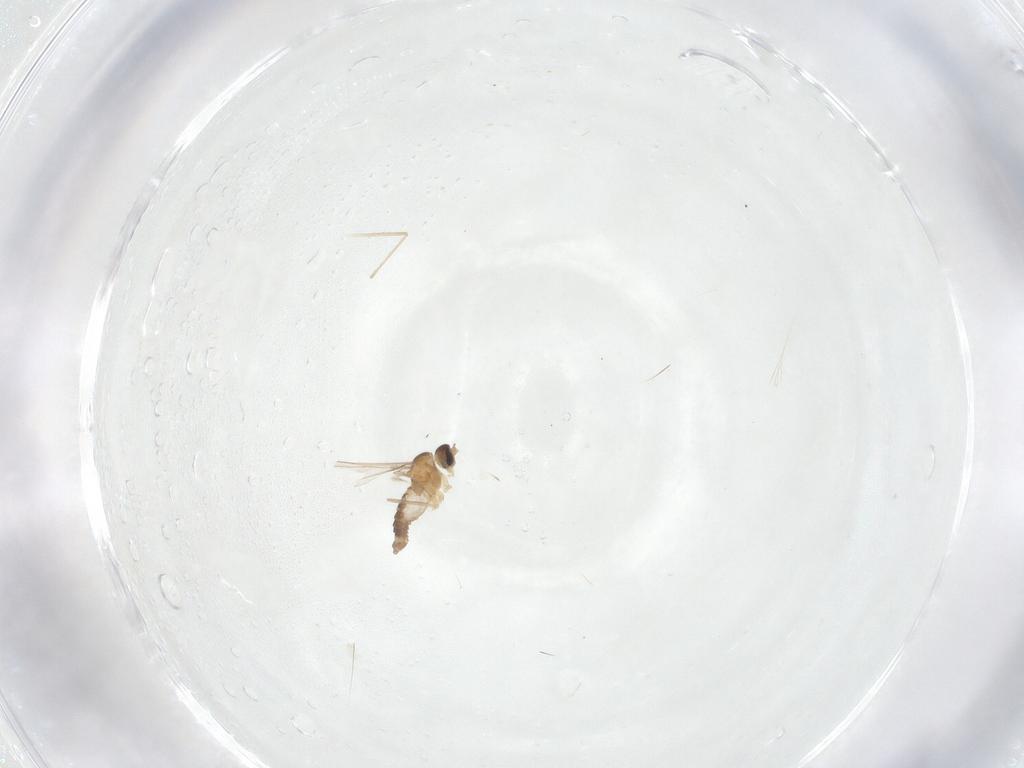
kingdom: Animalia
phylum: Arthropoda
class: Insecta
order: Diptera
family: Cecidomyiidae
